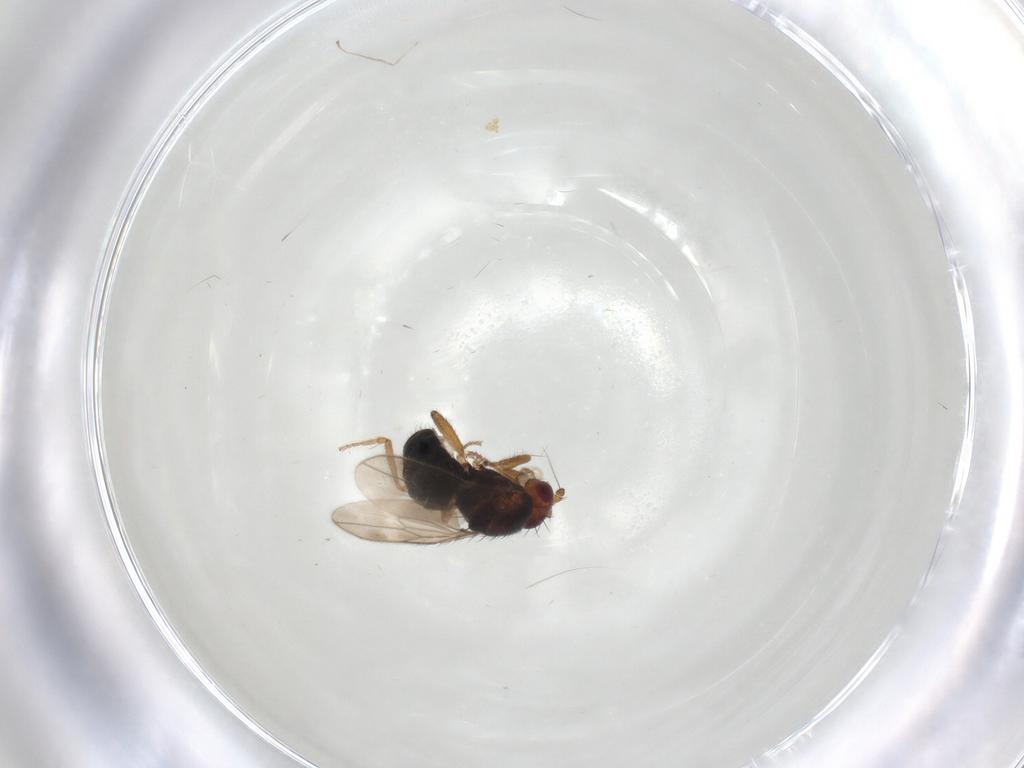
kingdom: Animalia
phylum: Arthropoda
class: Insecta
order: Diptera
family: Sphaeroceridae
